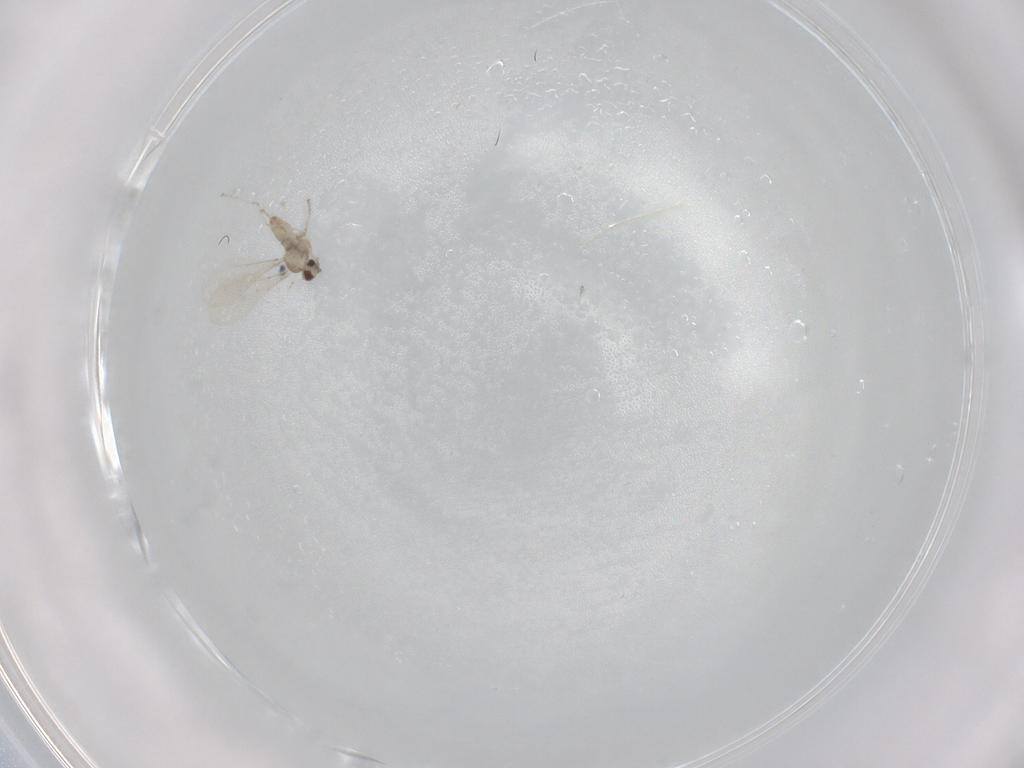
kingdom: Animalia
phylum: Arthropoda
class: Insecta
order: Diptera
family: Cecidomyiidae
